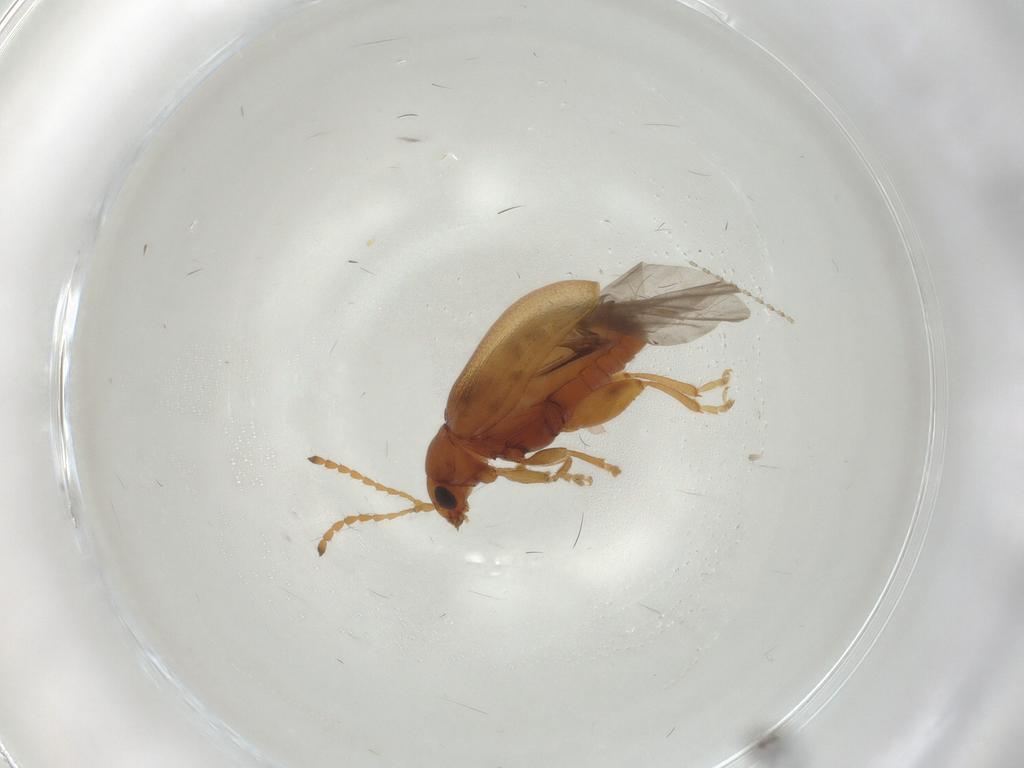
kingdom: Animalia
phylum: Arthropoda
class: Insecta
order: Coleoptera
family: Chrysomelidae
